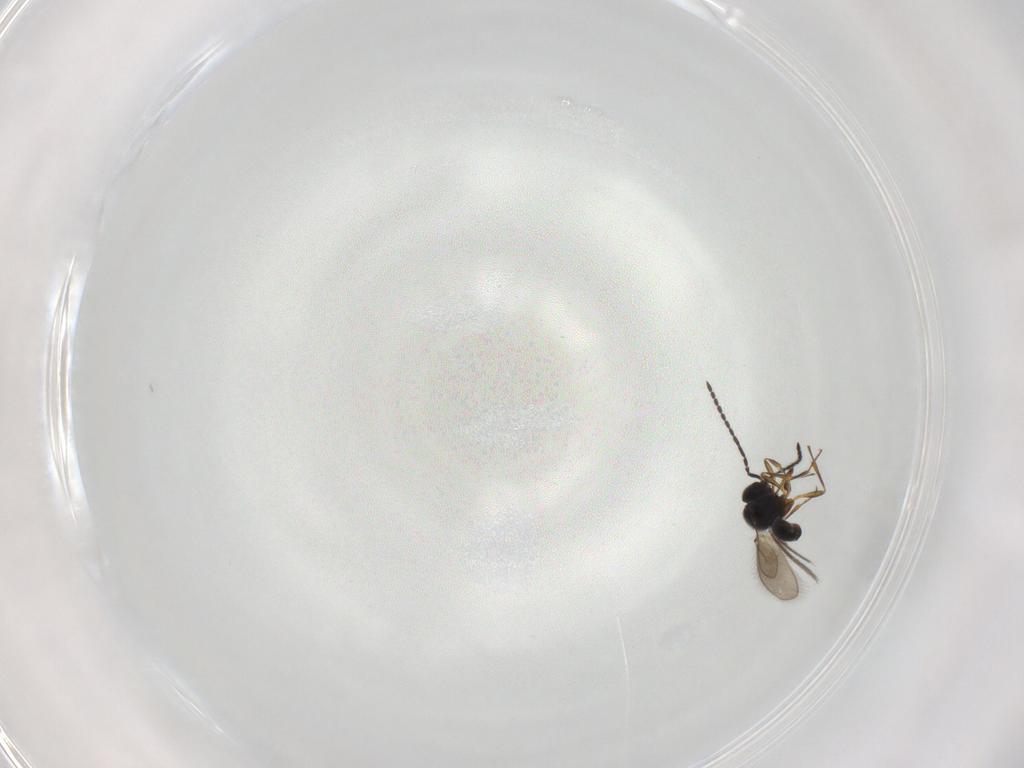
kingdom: Animalia
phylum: Arthropoda
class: Insecta
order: Hymenoptera
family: Scelionidae
